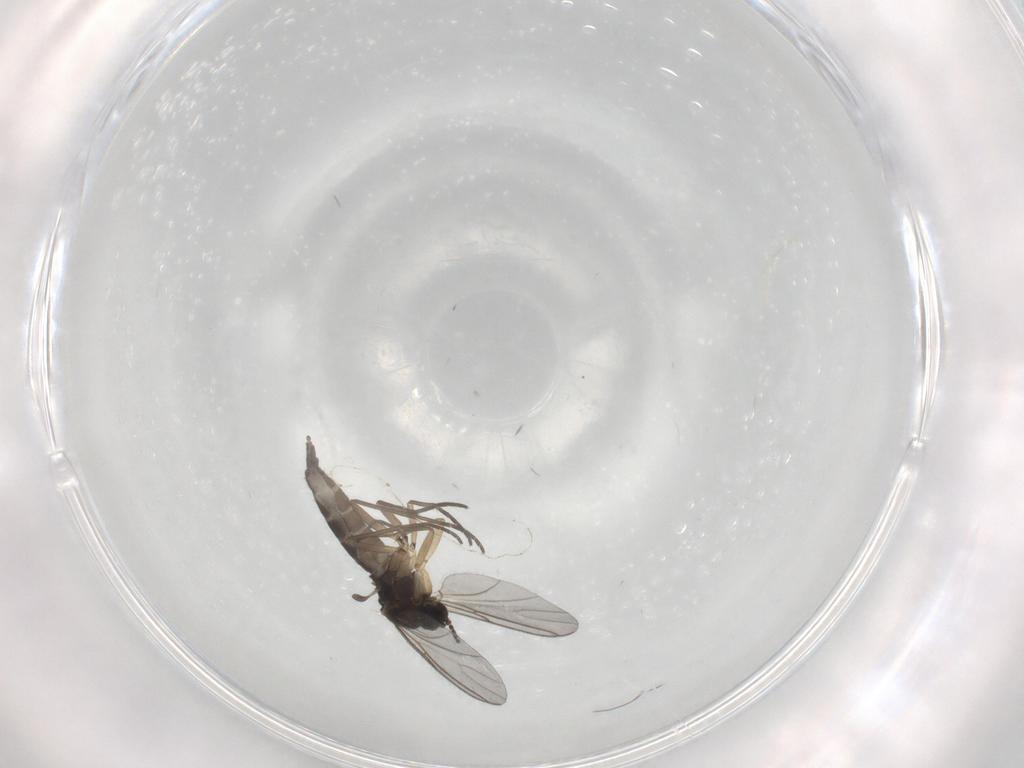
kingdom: Animalia
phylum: Arthropoda
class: Insecta
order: Diptera
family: Sciaridae
